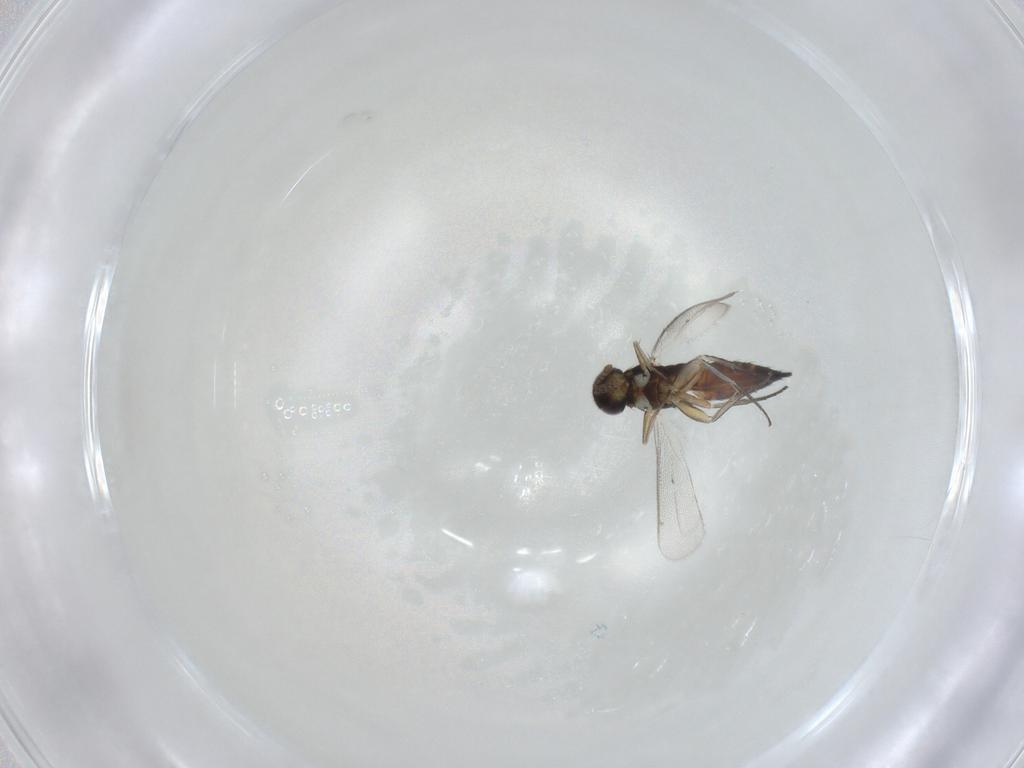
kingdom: Animalia
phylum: Arthropoda
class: Insecta
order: Hymenoptera
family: Eulophidae
